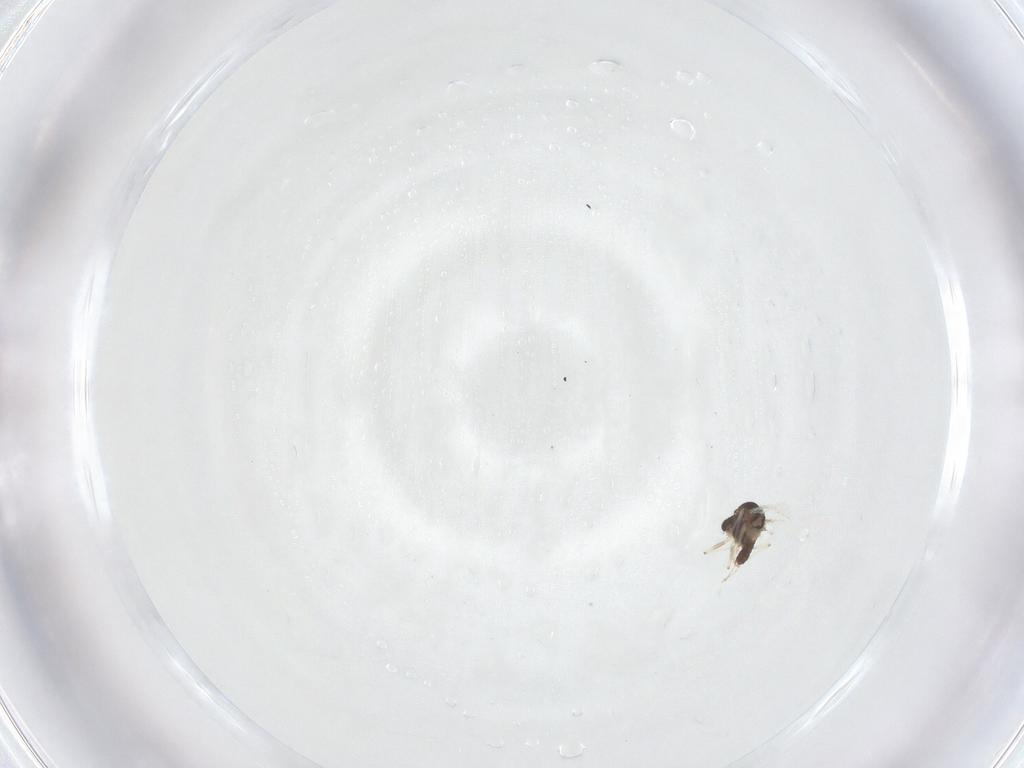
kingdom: Animalia
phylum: Arthropoda
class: Insecta
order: Diptera
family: Chironomidae
